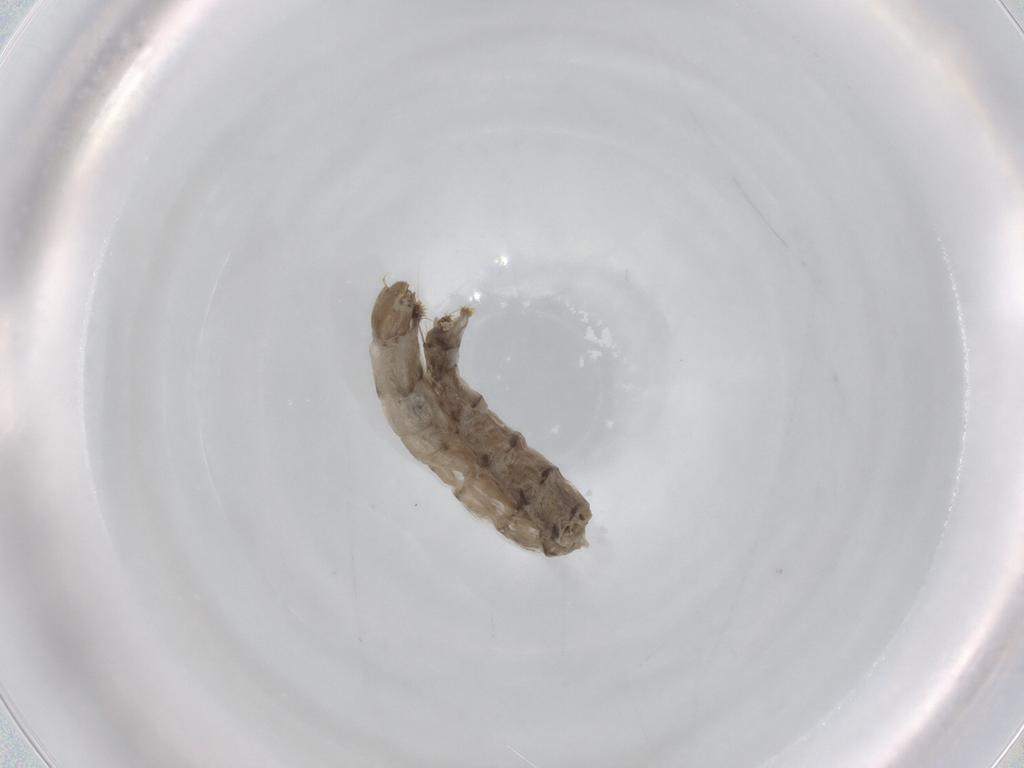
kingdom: Animalia
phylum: Arthropoda
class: Insecta
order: Diptera
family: Chironomidae
